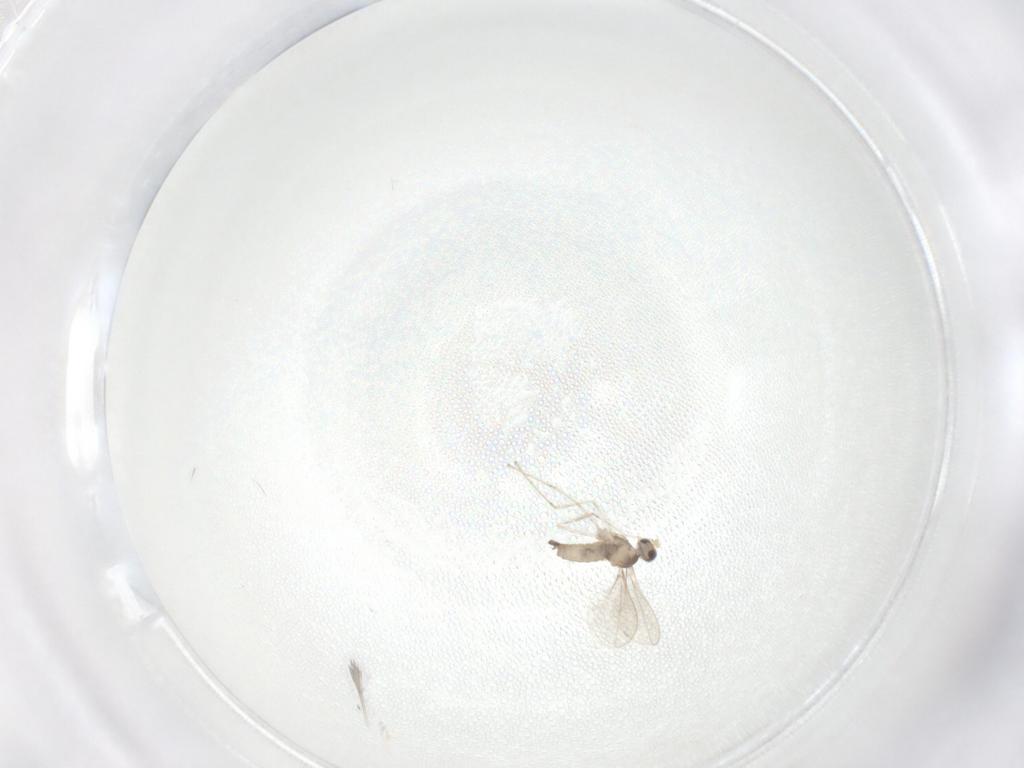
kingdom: Animalia
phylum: Arthropoda
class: Insecta
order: Diptera
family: Cecidomyiidae
